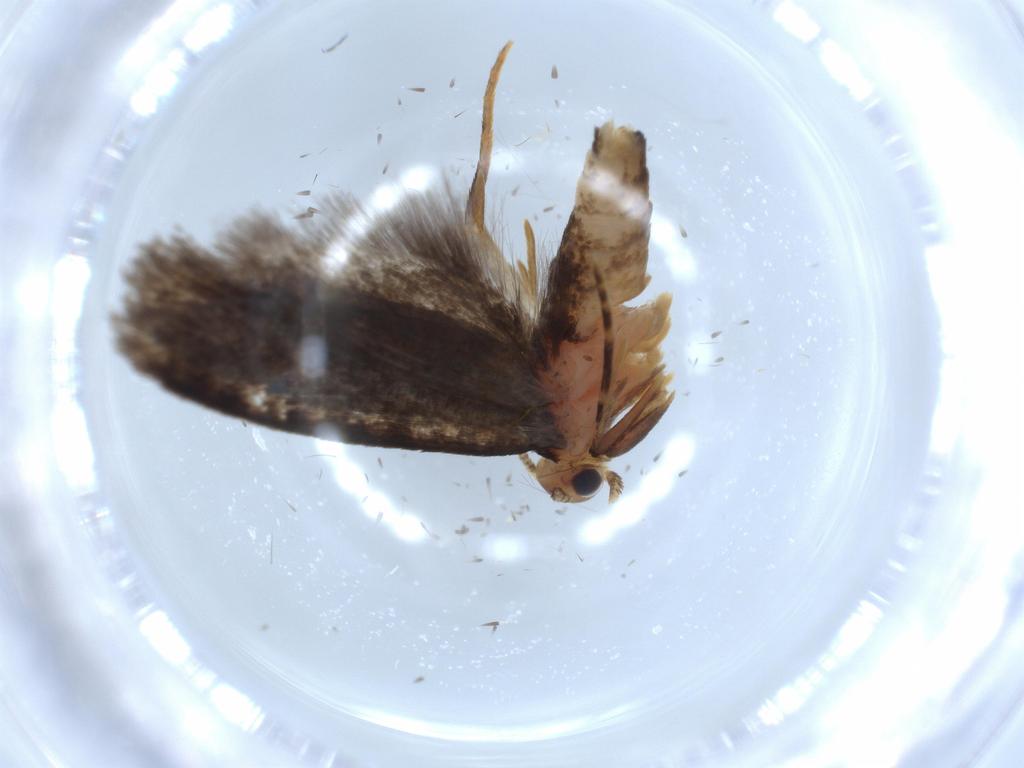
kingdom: Animalia
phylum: Arthropoda
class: Insecta
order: Lepidoptera
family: Tineidae
